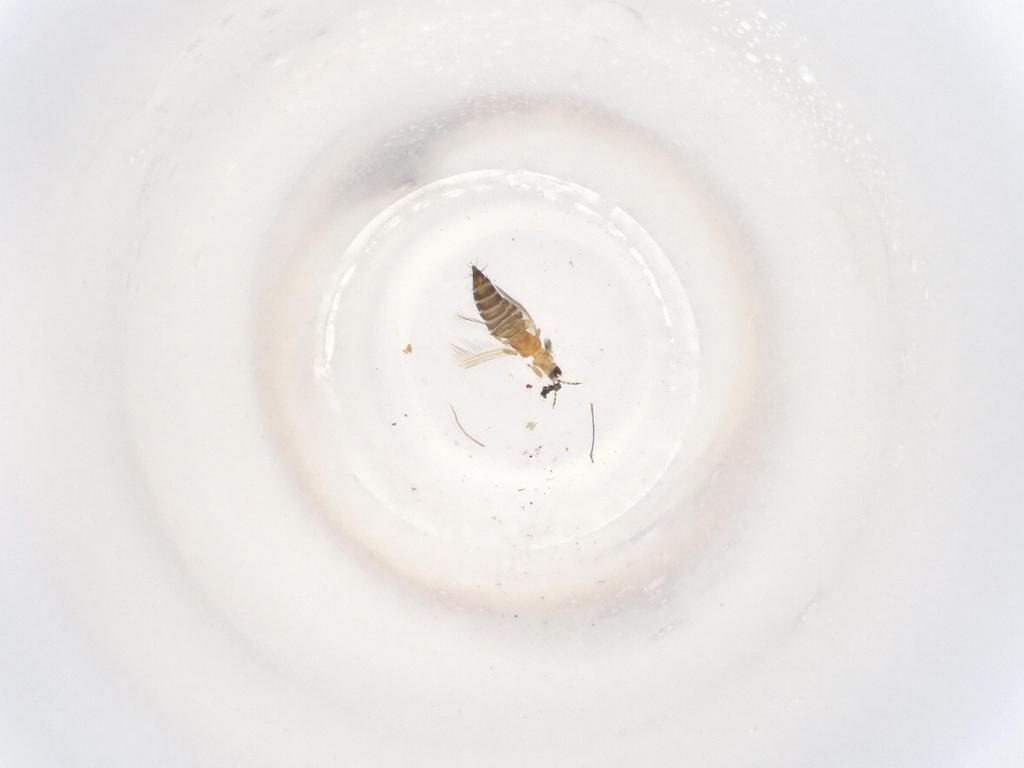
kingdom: Animalia
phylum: Arthropoda
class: Insecta
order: Thysanoptera
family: Thripidae
